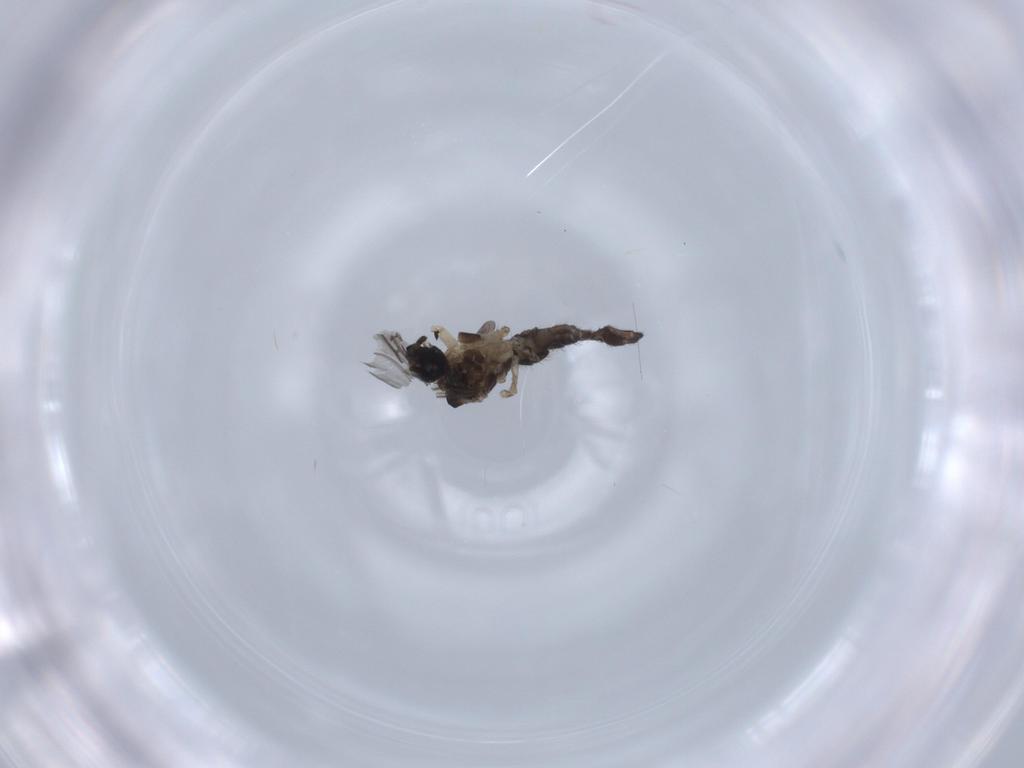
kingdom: Animalia
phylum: Arthropoda
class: Insecta
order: Diptera
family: Sciaridae
